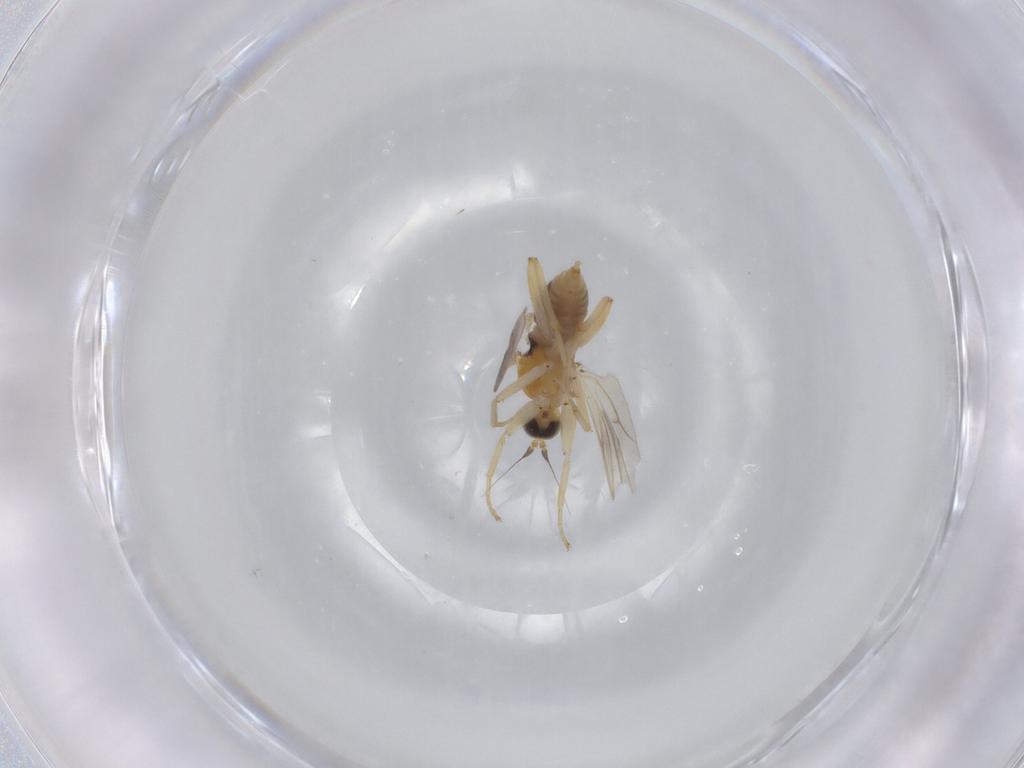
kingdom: Animalia
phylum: Arthropoda
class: Insecta
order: Diptera
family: Hybotidae
